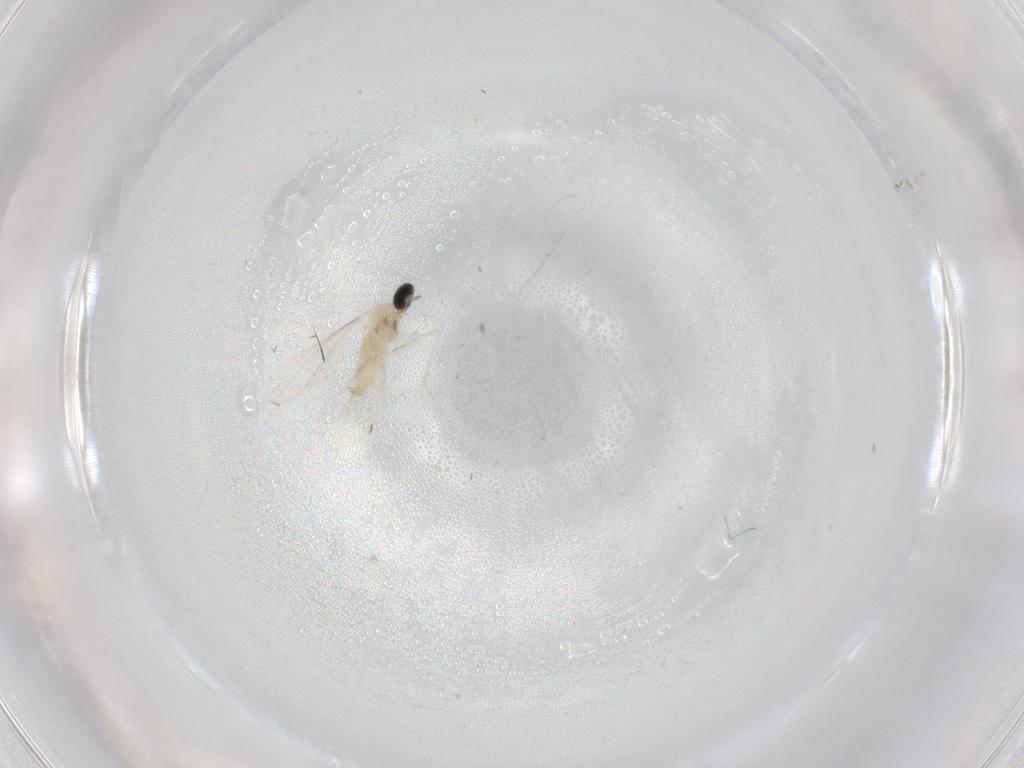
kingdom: Animalia
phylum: Arthropoda
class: Insecta
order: Diptera
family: Cecidomyiidae
